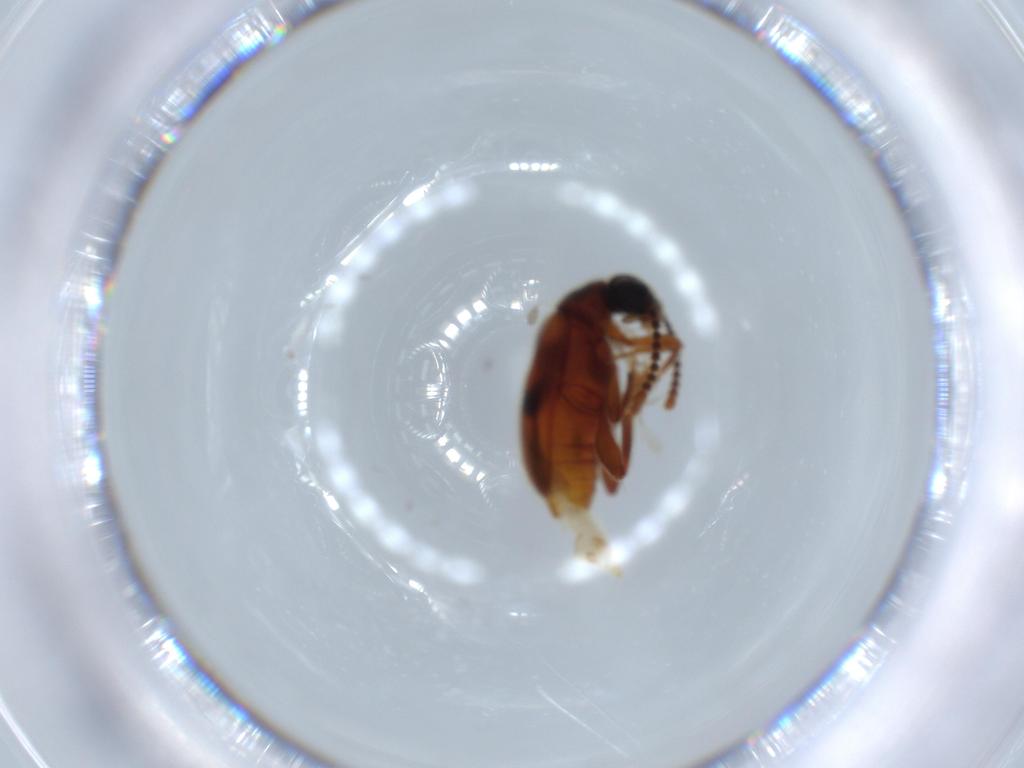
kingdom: Animalia
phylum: Arthropoda
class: Insecta
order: Coleoptera
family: Aderidae
